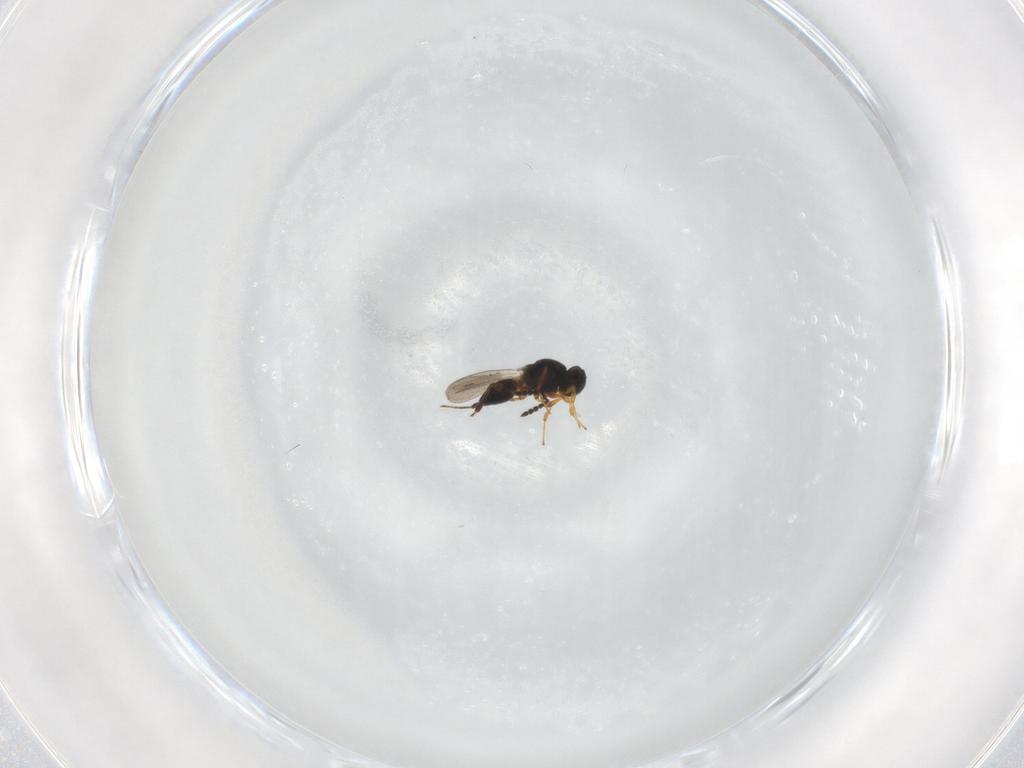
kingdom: Animalia
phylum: Arthropoda
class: Insecta
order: Hymenoptera
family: Platygastridae
